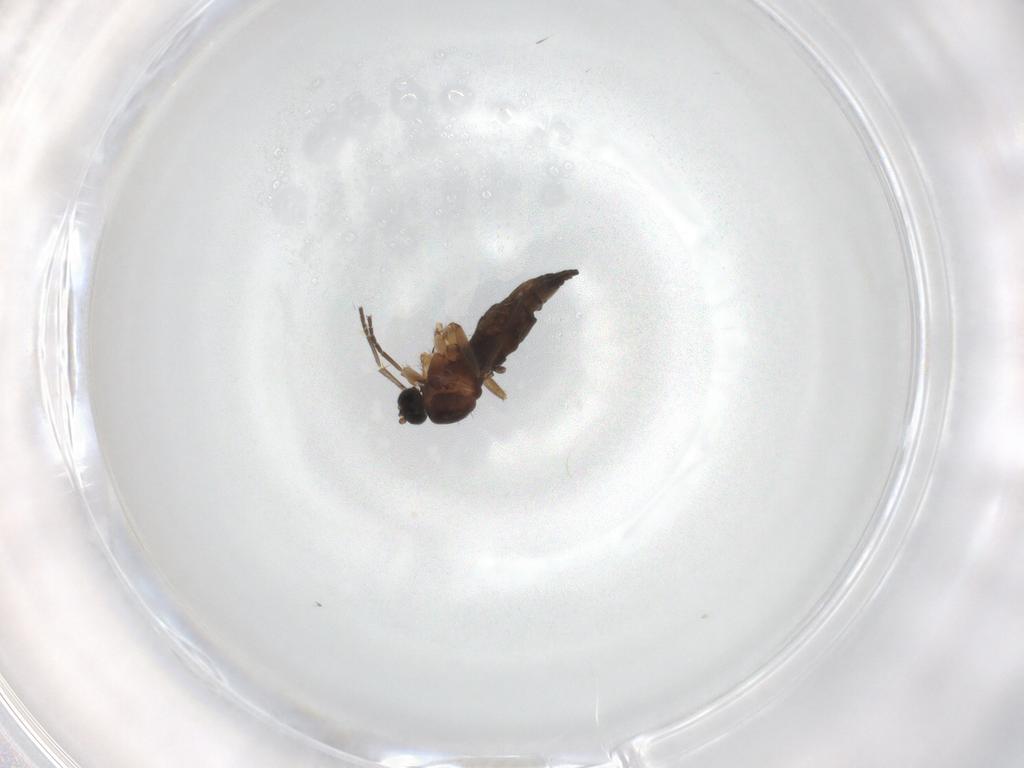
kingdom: Animalia
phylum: Arthropoda
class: Insecta
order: Diptera
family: Sciaridae
